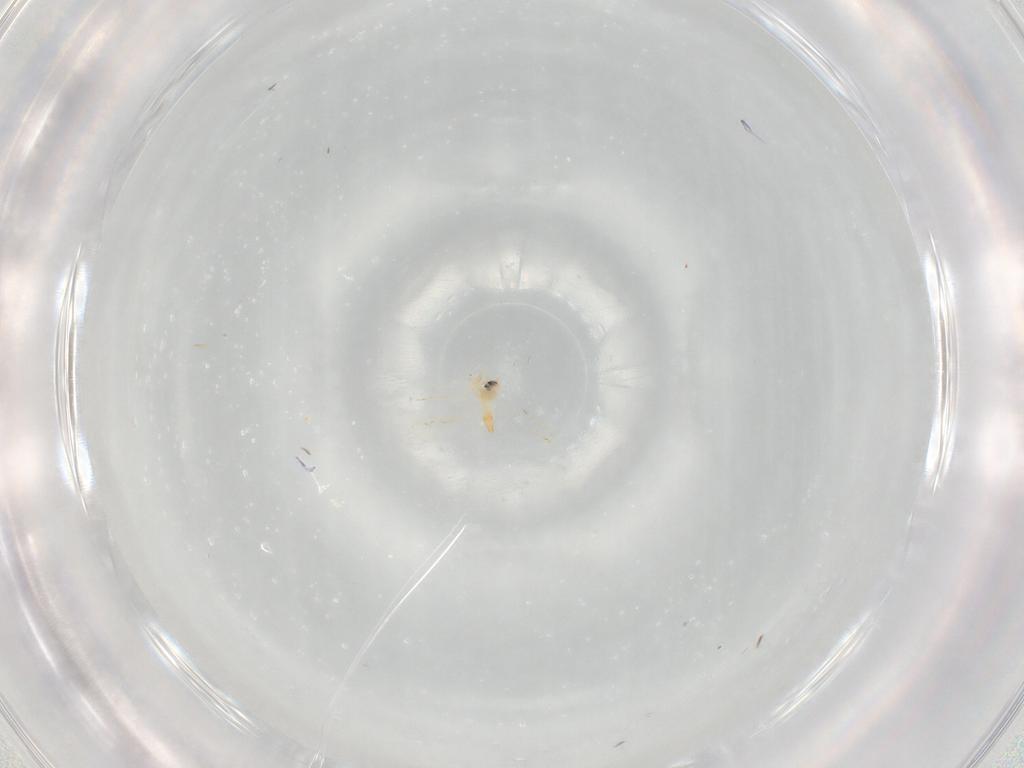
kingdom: Animalia
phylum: Arthropoda
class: Insecta
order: Hemiptera
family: Aleyrodidae
